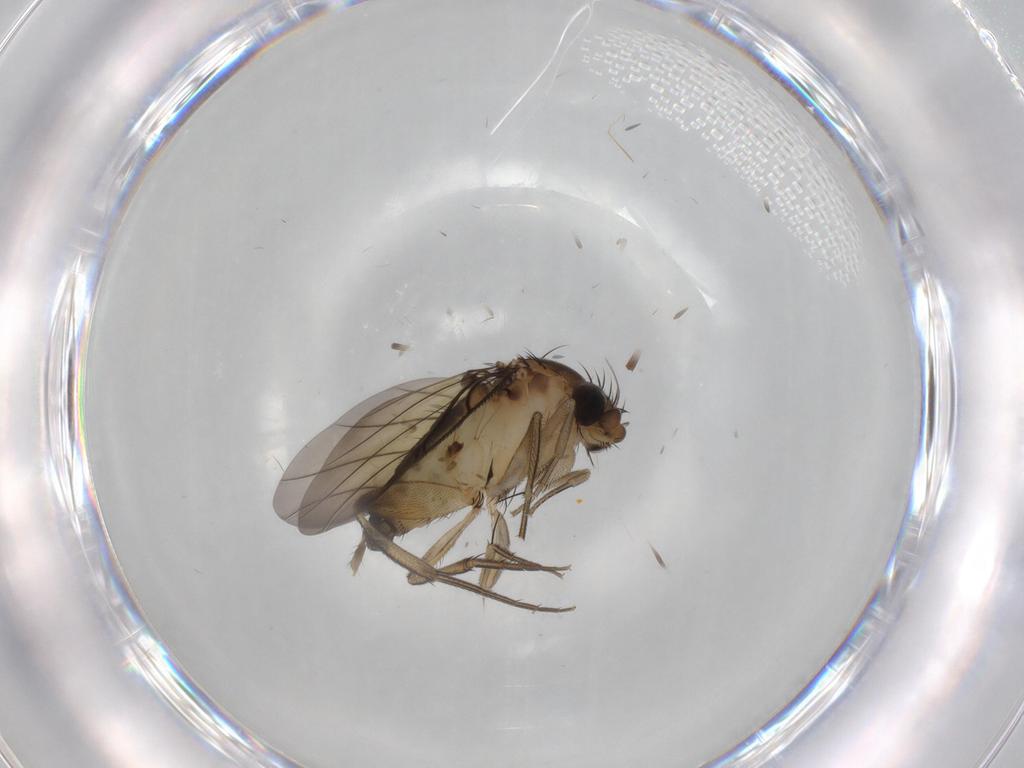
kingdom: Animalia
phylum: Arthropoda
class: Insecta
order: Diptera
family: Phoridae
